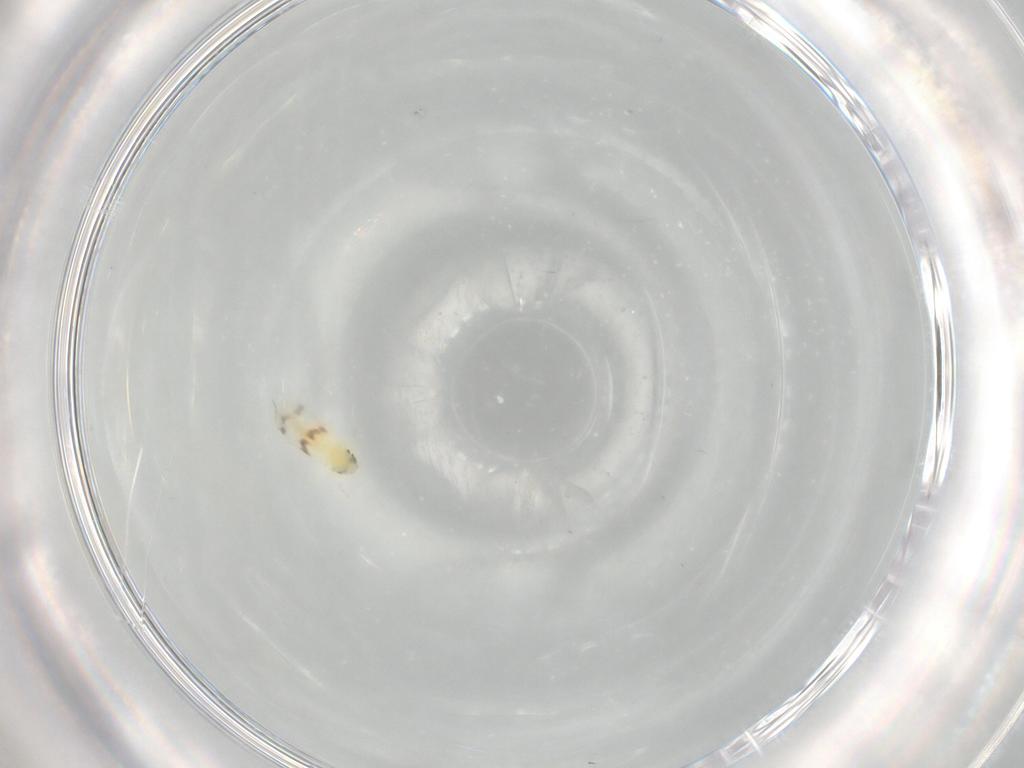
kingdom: Animalia
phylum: Arthropoda
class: Insecta
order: Hemiptera
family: Aleyrodidae
